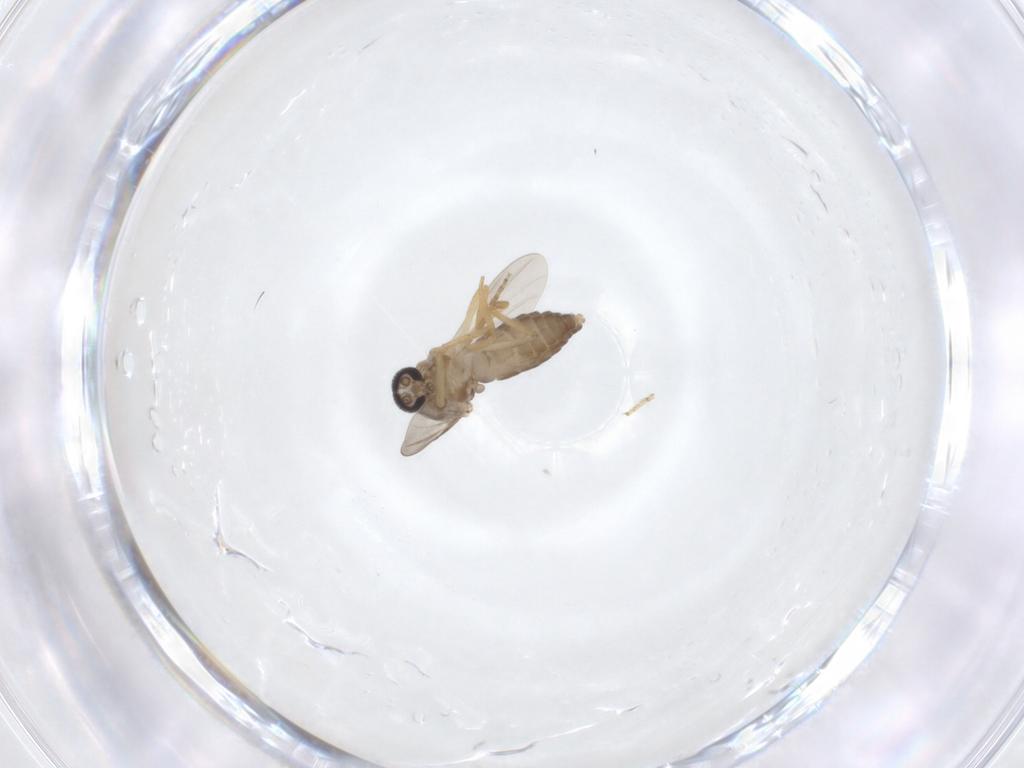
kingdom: Animalia
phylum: Arthropoda
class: Insecta
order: Diptera
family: Ceratopogonidae
